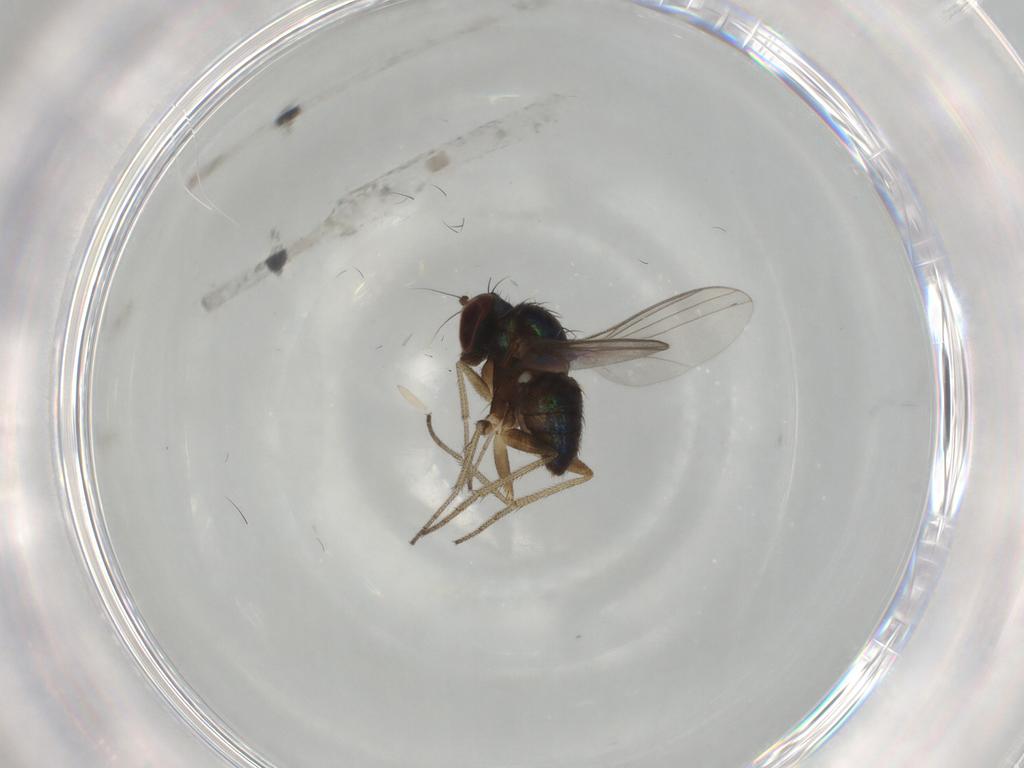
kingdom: Animalia
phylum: Arthropoda
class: Insecta
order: Diptera
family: Chironomidae
